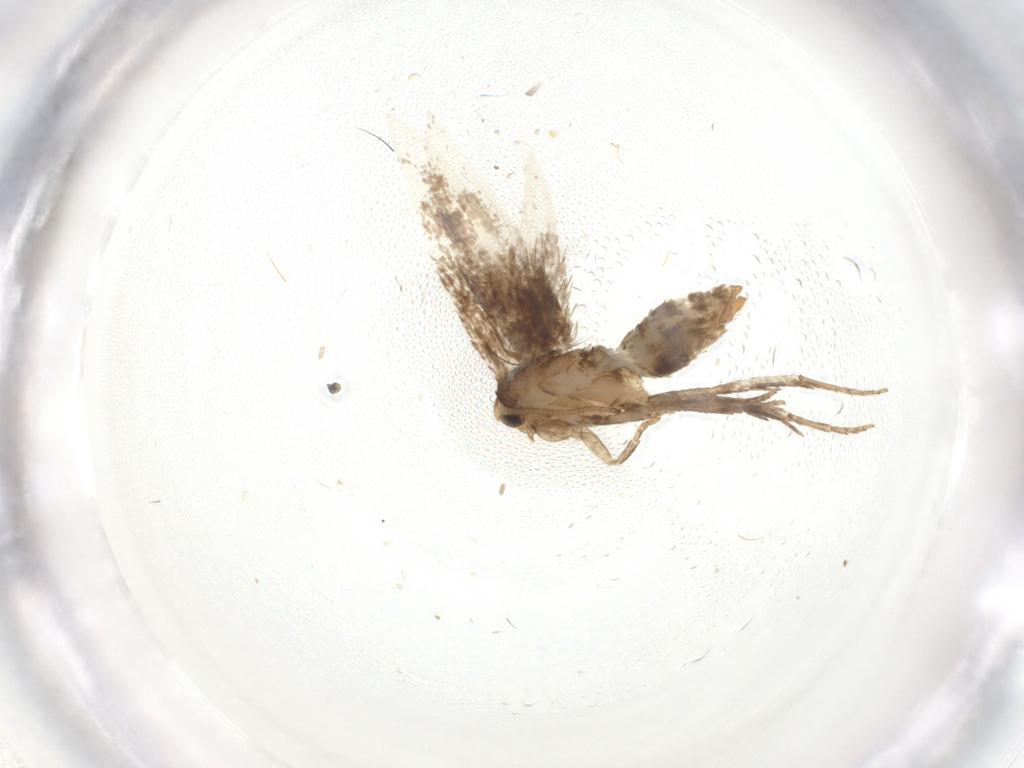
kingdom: Animalia
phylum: Arthropoda
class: Insecta
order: Lepidoptera
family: Nepticulidae
